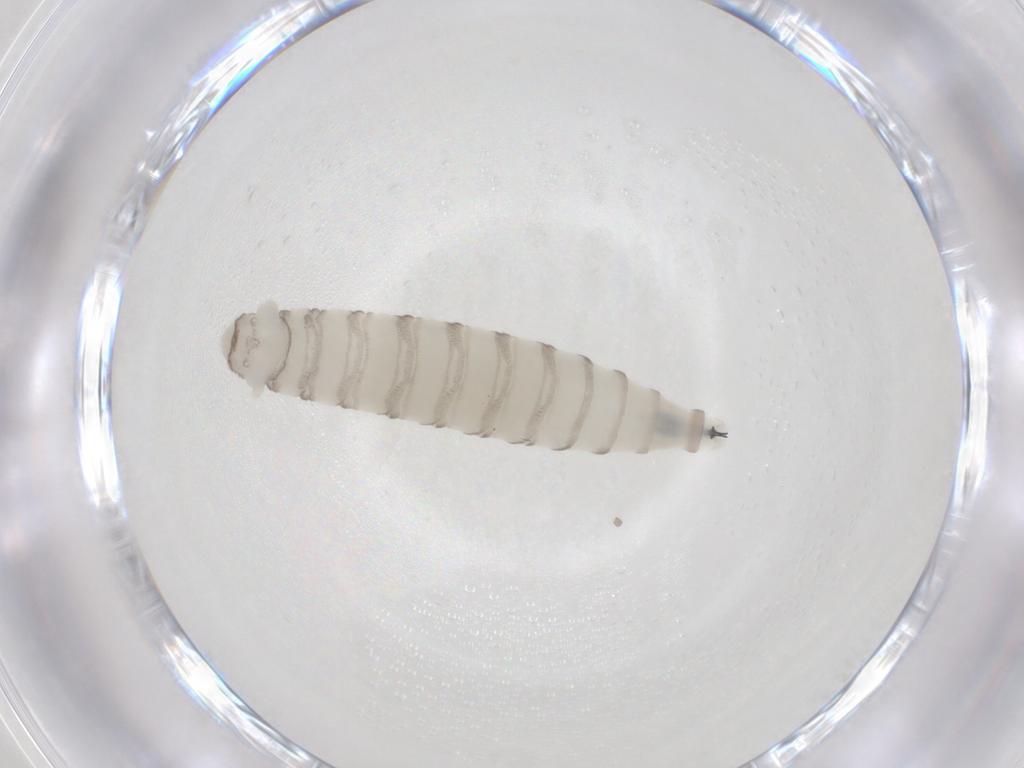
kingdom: Animalia
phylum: Arthropoda
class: Insecta
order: Diptera
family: Sarcophagidae
